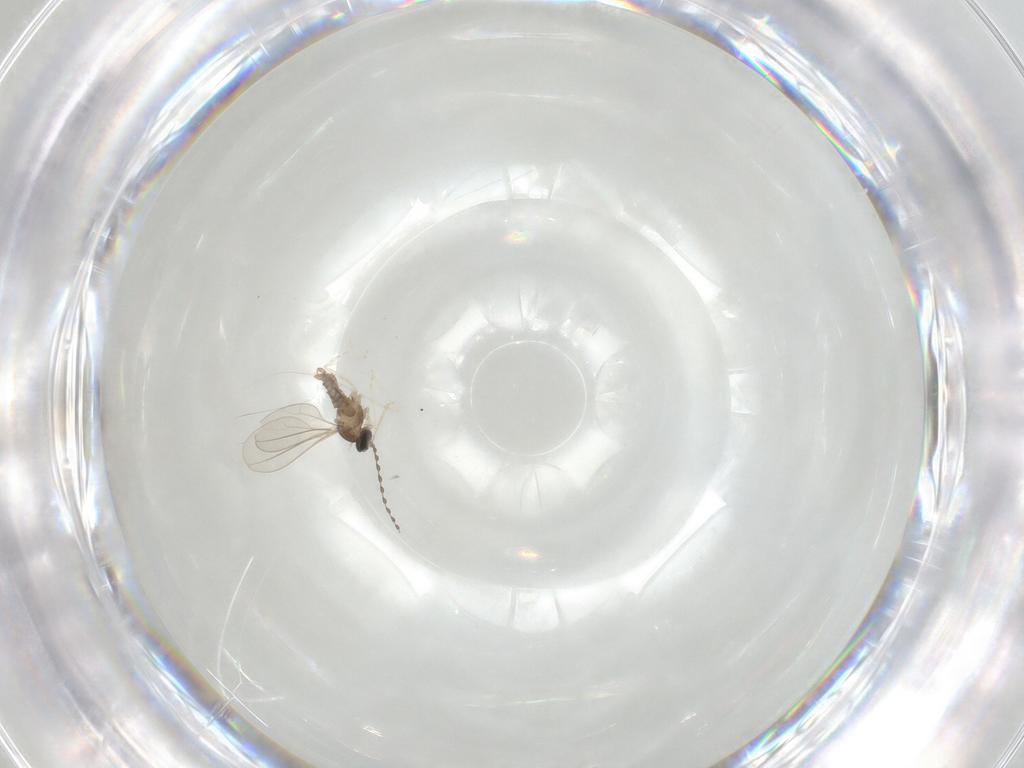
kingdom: Animalia
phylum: Arthropoda
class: Insecta
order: Diptera
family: Cecidomyiidae
